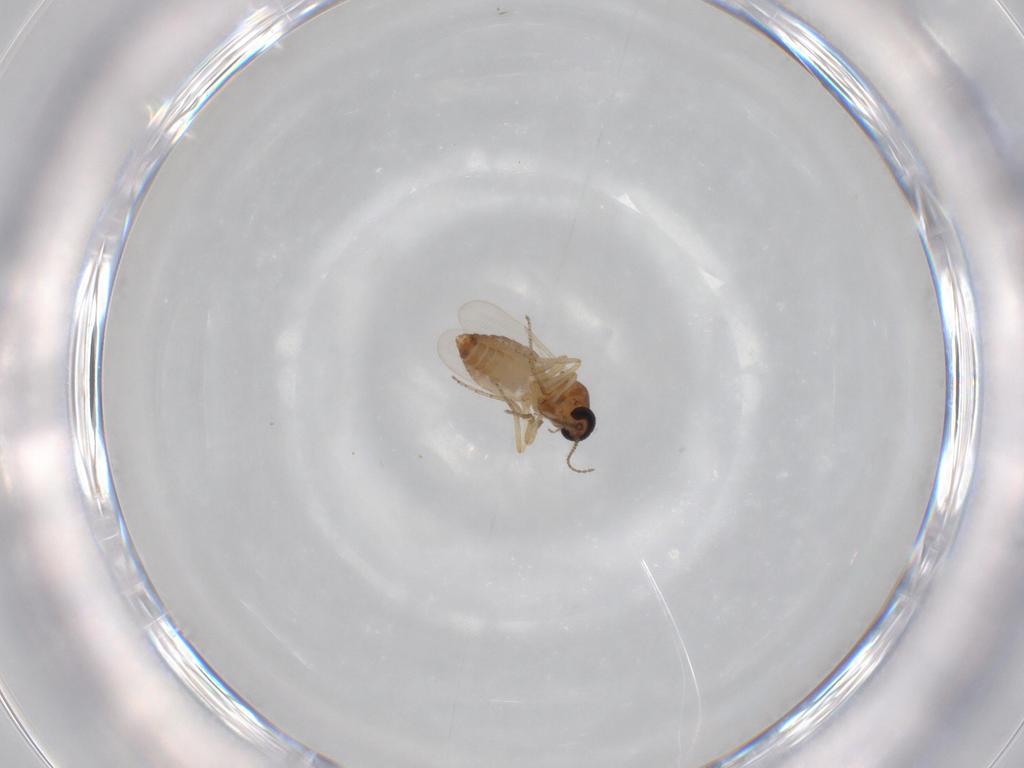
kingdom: Animalia
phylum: Arthropoda
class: Insecta
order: Diptera
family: Ceratopogonidae
